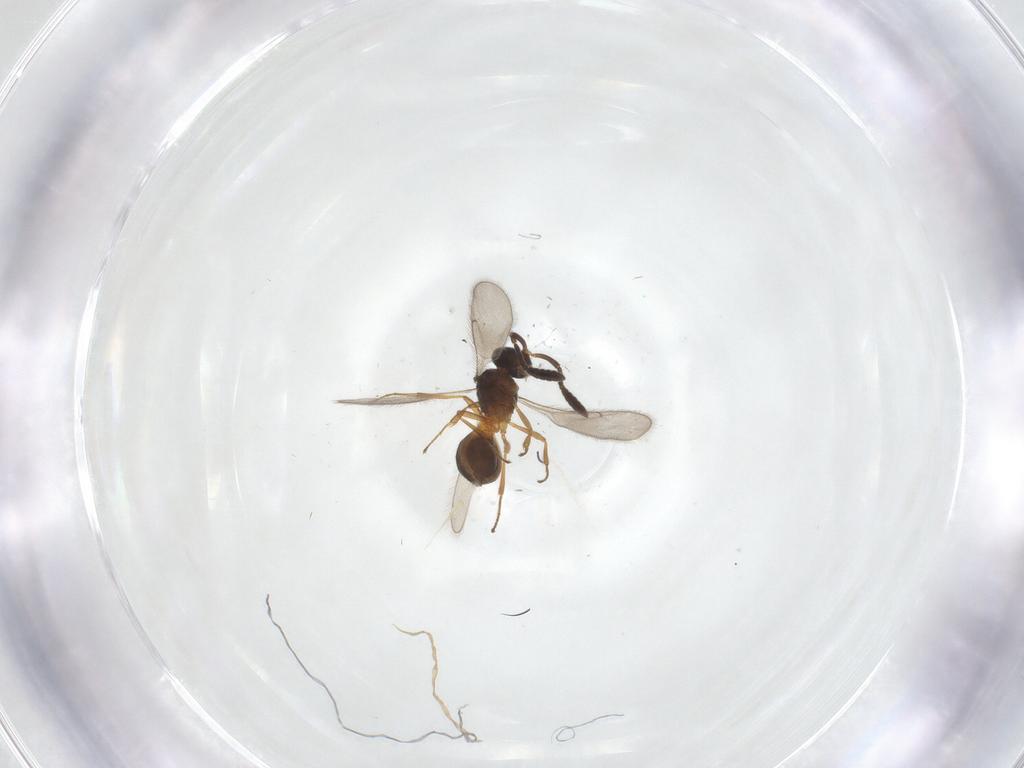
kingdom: Animalia
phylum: Arthropoda
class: Insecta
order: Hymenoptera
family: Scelionidae
